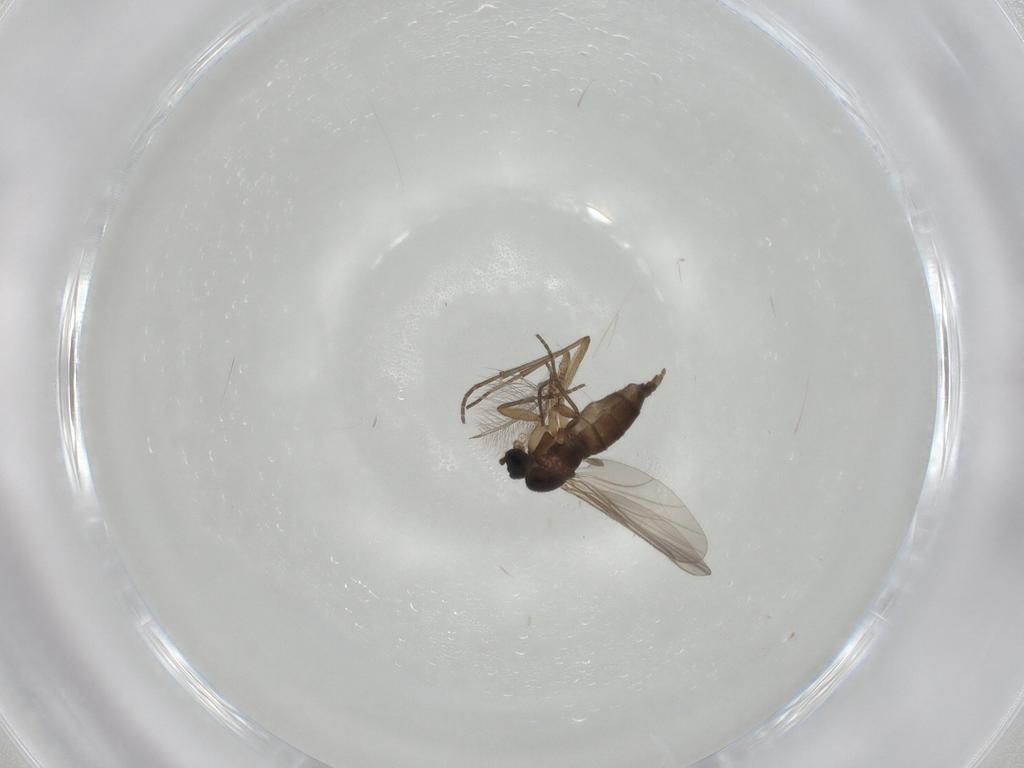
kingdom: Animalia
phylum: Arthropoda
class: Insecta
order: Diptera
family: Chironomidae
